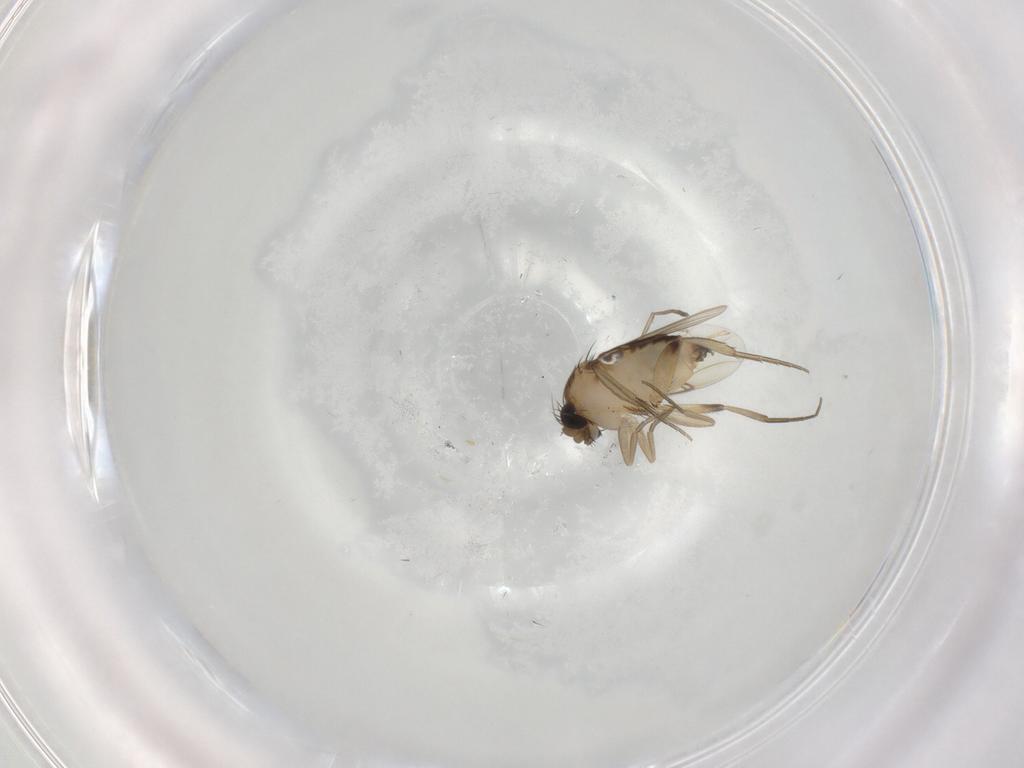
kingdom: Animalia
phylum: Arthropoda
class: Insecta
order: Diptera
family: Phoridae
